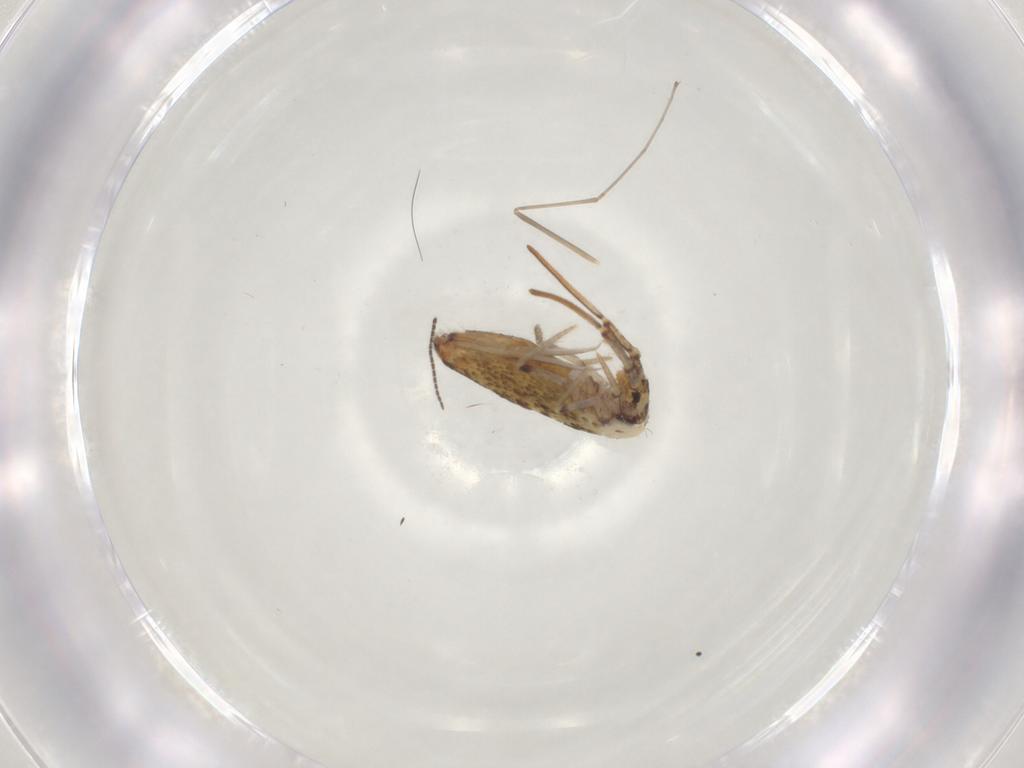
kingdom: Animalia
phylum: Arthropoda
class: Collembola
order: Entomobryomorpha
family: Entomobryidae
